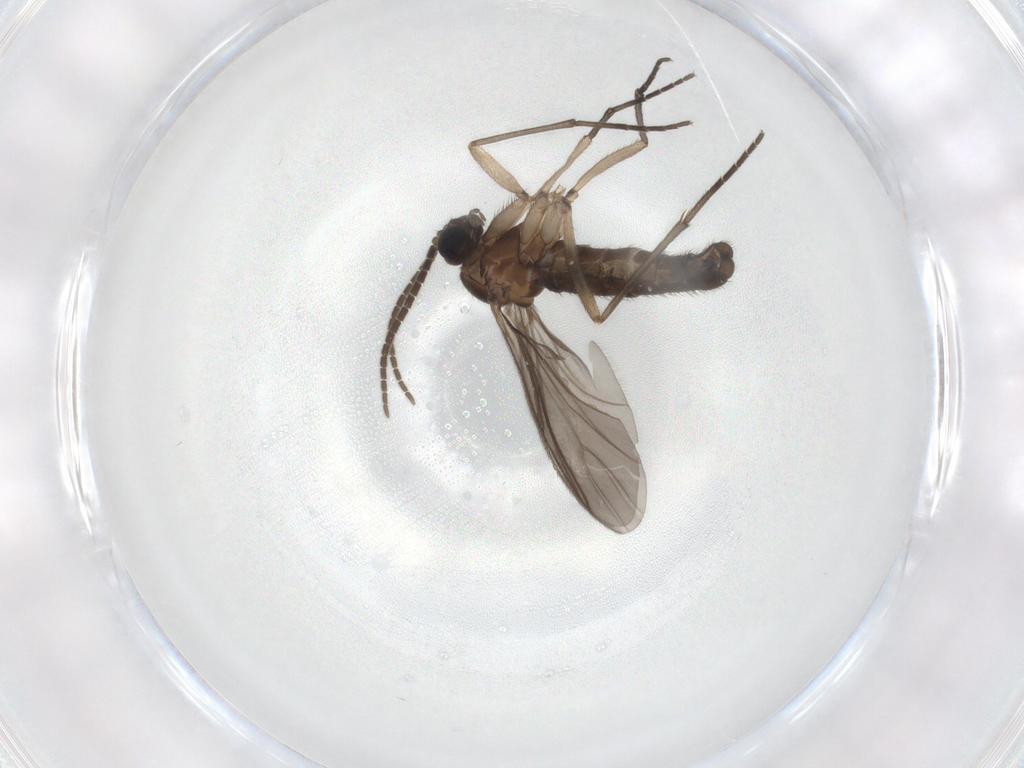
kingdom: Animalia
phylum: Arthropoda
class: Insecta
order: Diptera
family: Sciaridae
